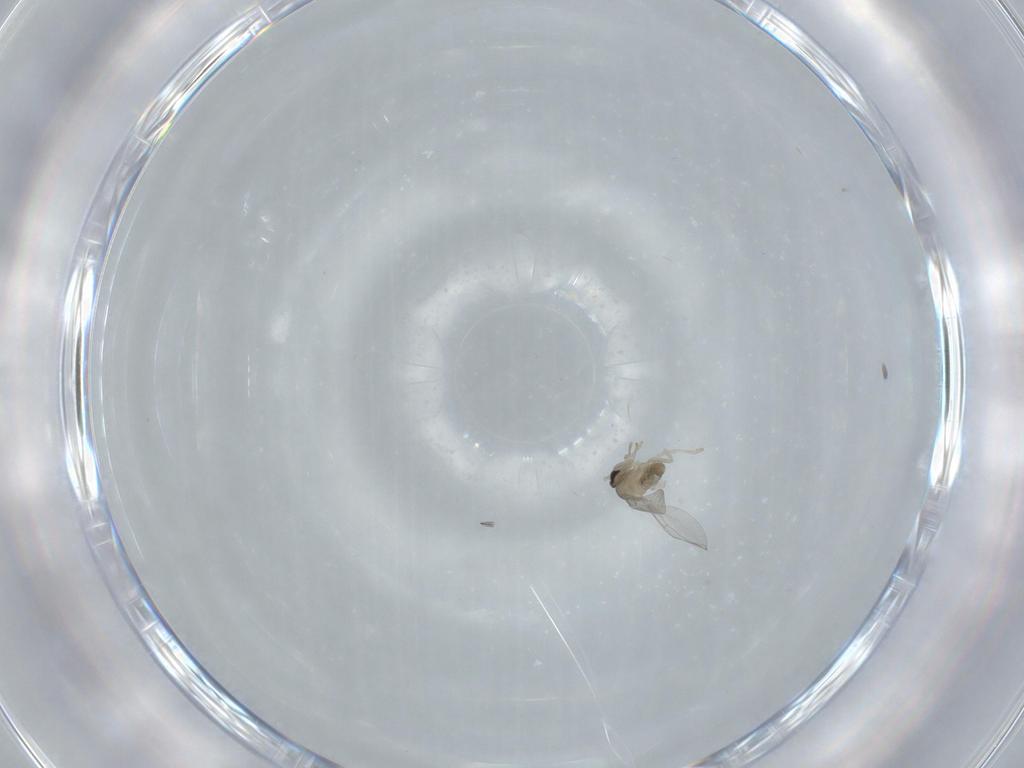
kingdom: Animalia
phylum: Arthropoda
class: Insecta
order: Diptera
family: Cecidomyiidae
